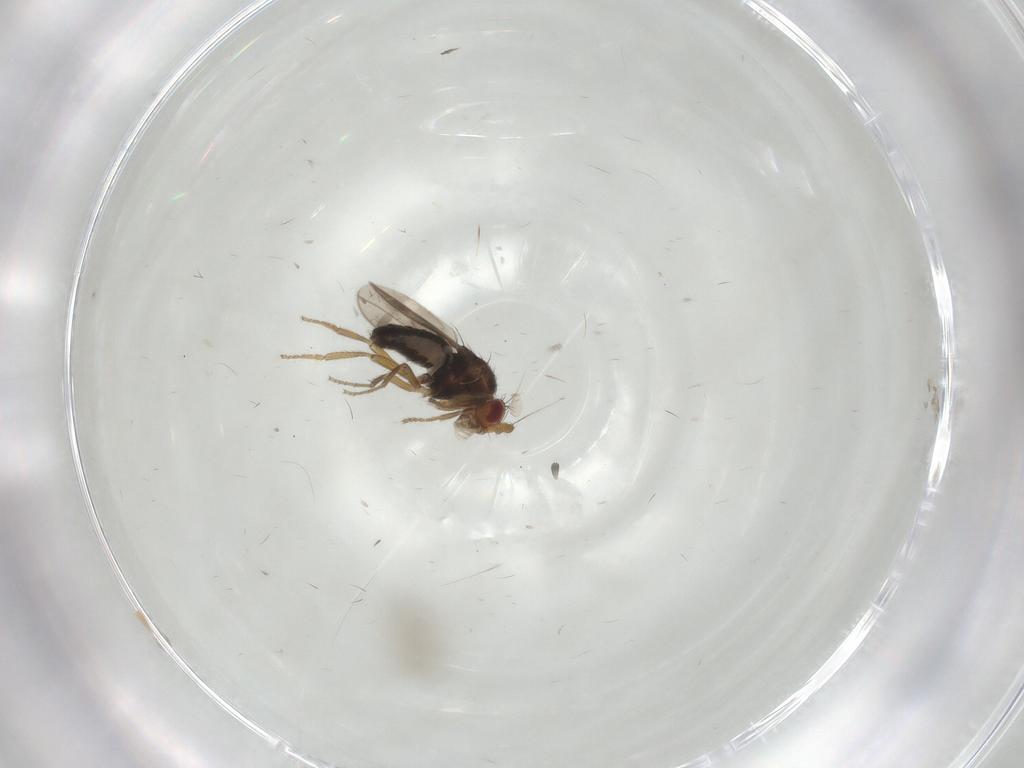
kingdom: Animalia
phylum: Arthropoda
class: Insecta
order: Diptera
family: Sphaeroceridae
